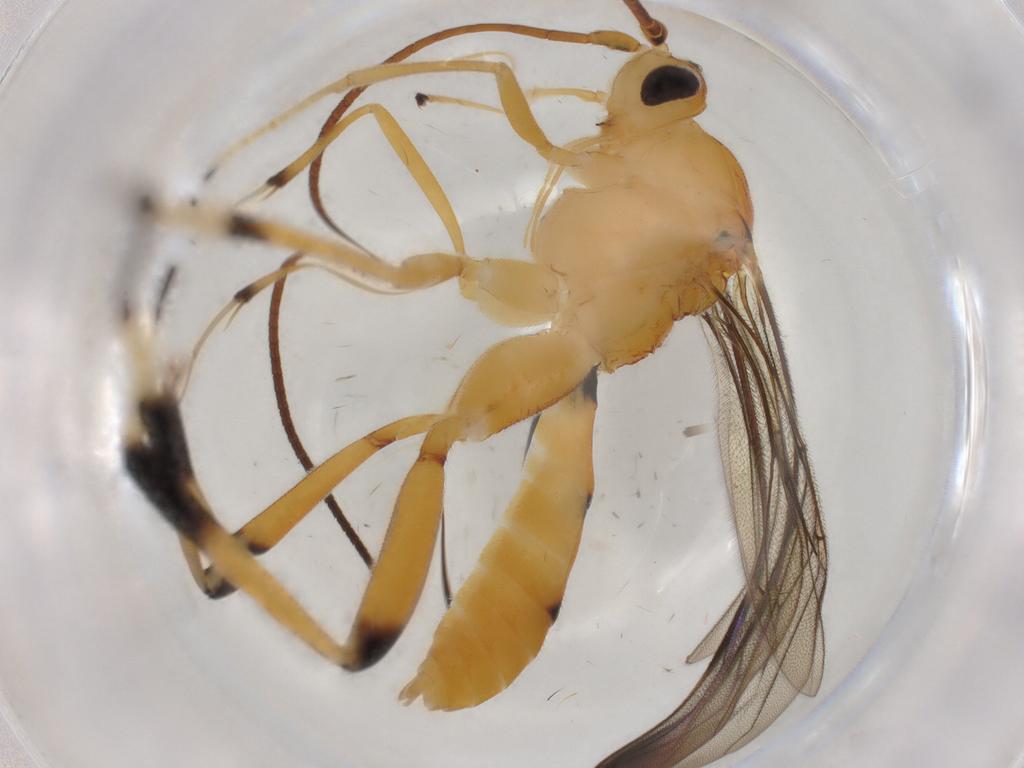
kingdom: Animalia
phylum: Arthropoda
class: Insecta
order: Hymenoptera
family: Braconidae
